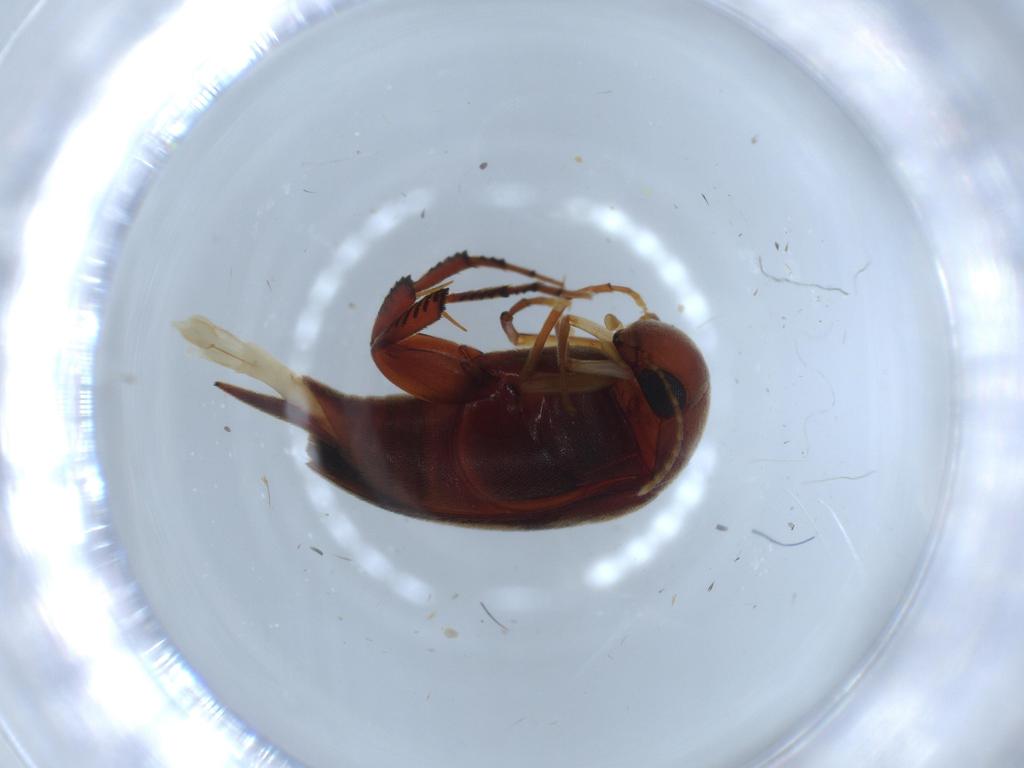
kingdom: Animalia
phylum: Arthropoda
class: Insecta
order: Coleoptera
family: Mordellidae
